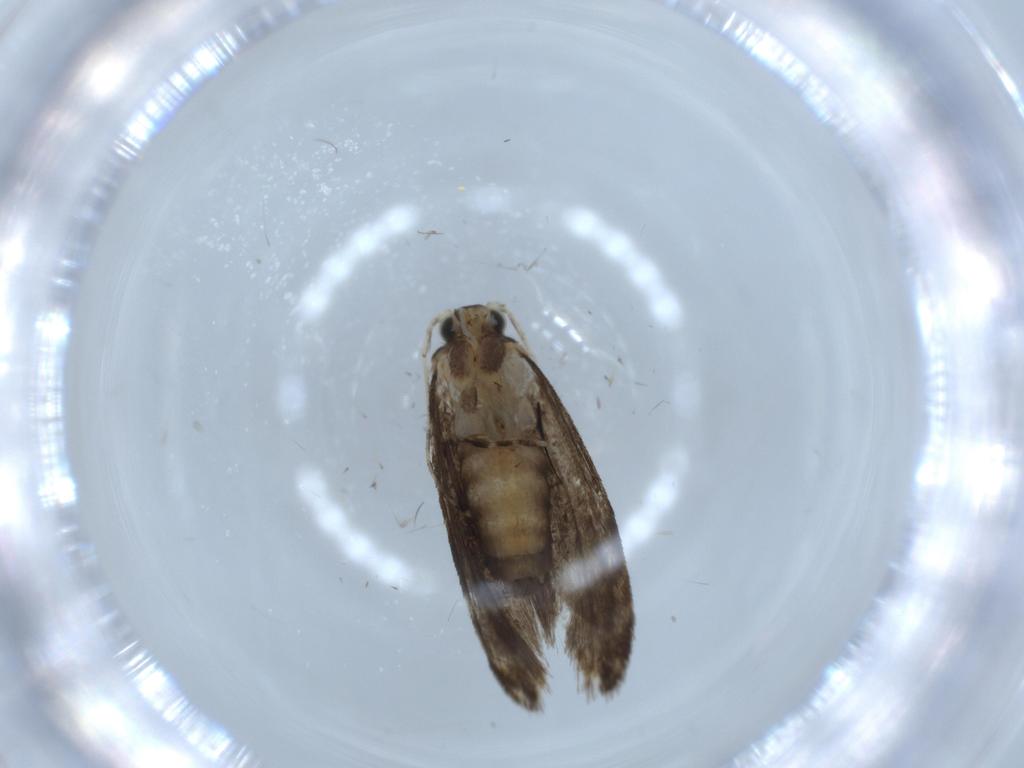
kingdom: Animalia
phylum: Arthropoda
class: Insecta
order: Lepidoptera
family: Tineidae
